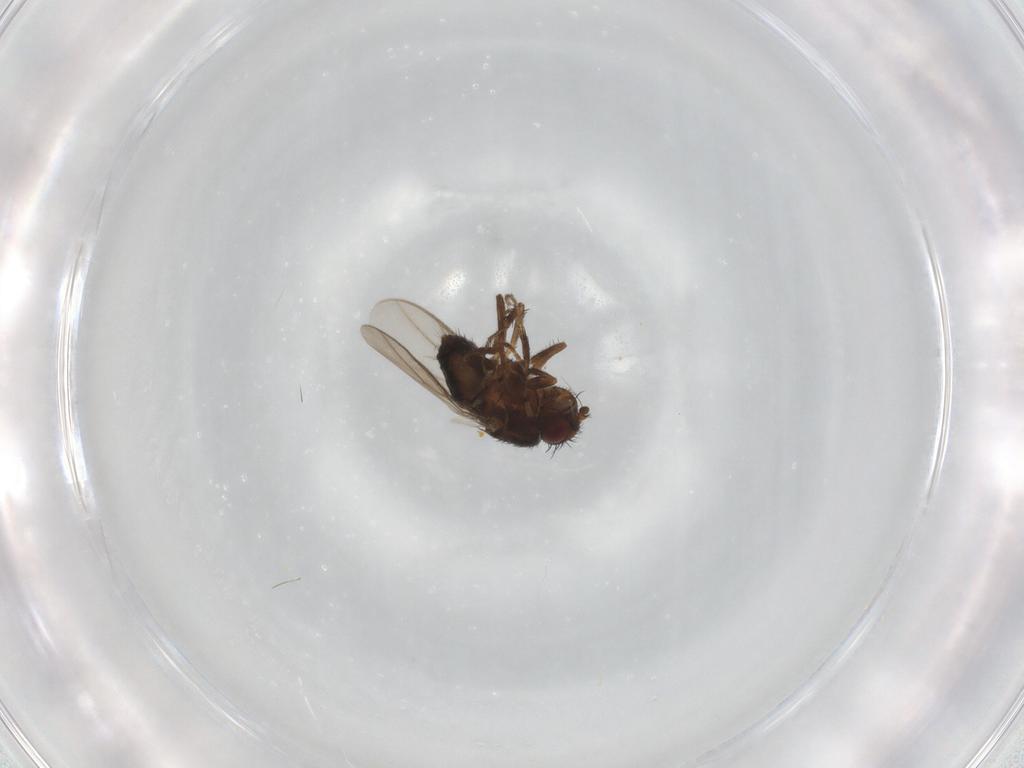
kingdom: Animalia
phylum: Arthropoda
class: Insecta
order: Diptera
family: Sphaeroceridae
